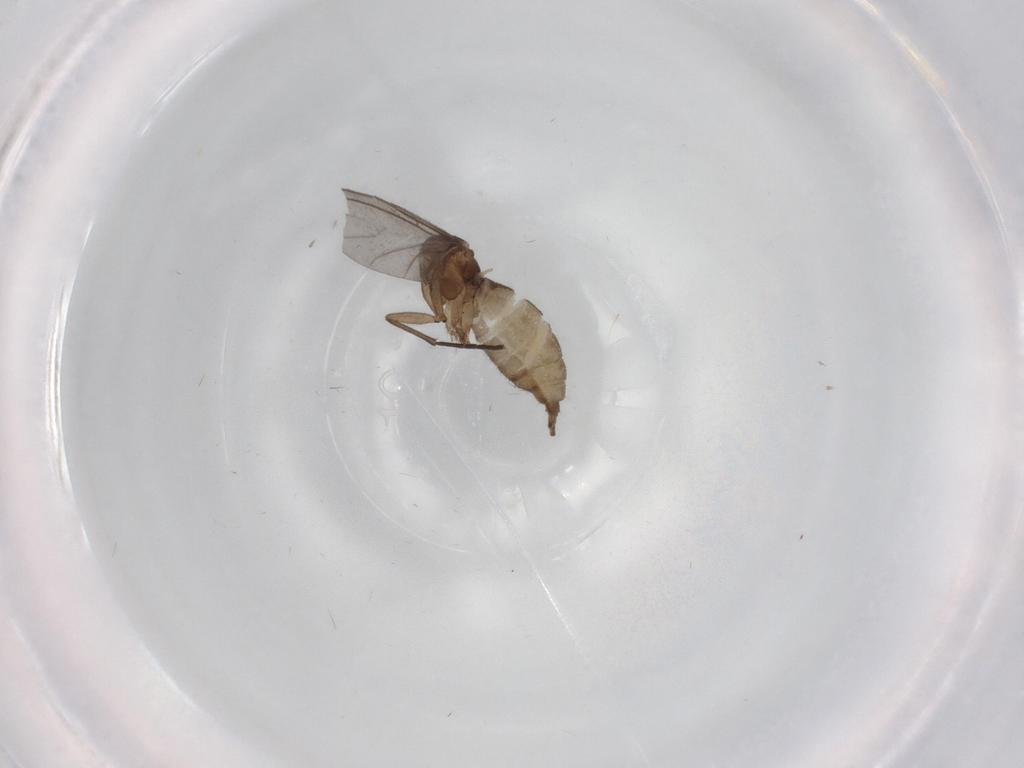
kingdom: Animalia
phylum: Arthropoda
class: Insecta
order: Diptera
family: Sciaridae
